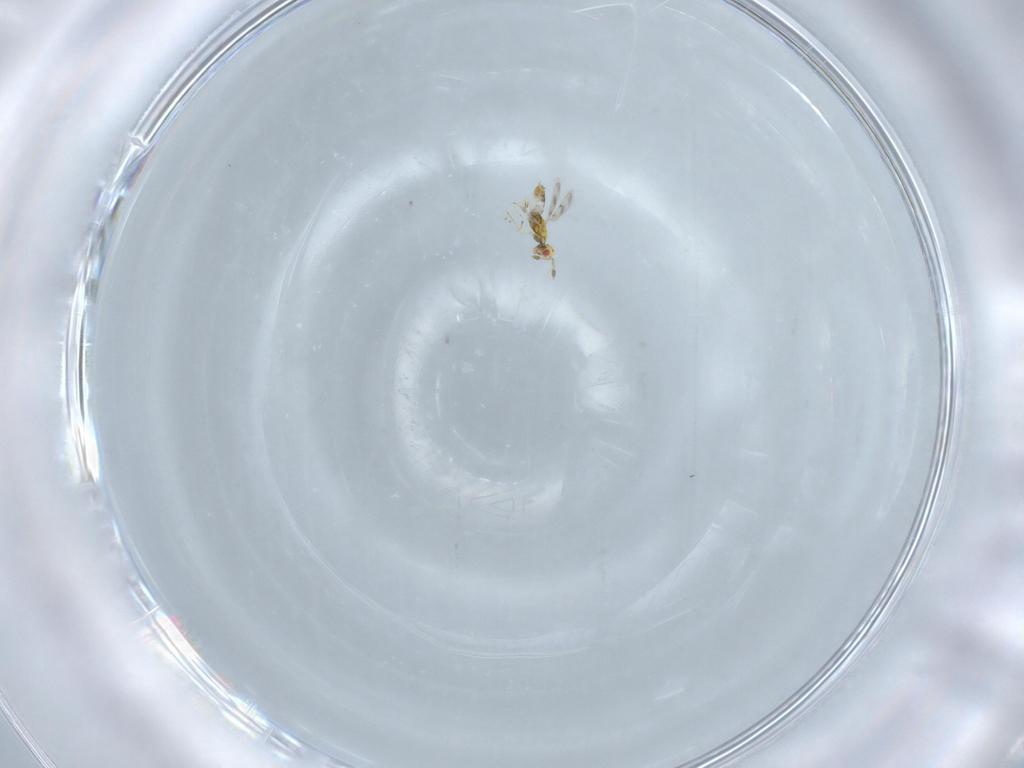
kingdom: Animalia
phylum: Arthropoda
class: Insecta
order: Hymenoptera
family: Eulophidae
